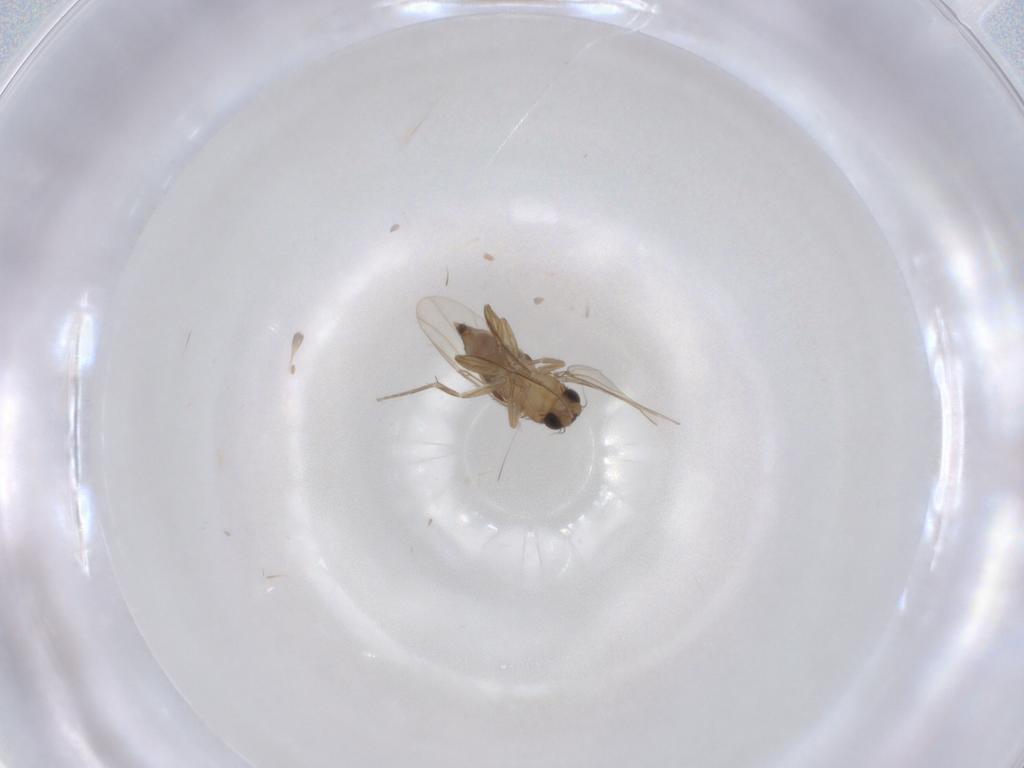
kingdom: Animalia
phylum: Arthropoda
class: Insecta
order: Diptera
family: Phoridae
